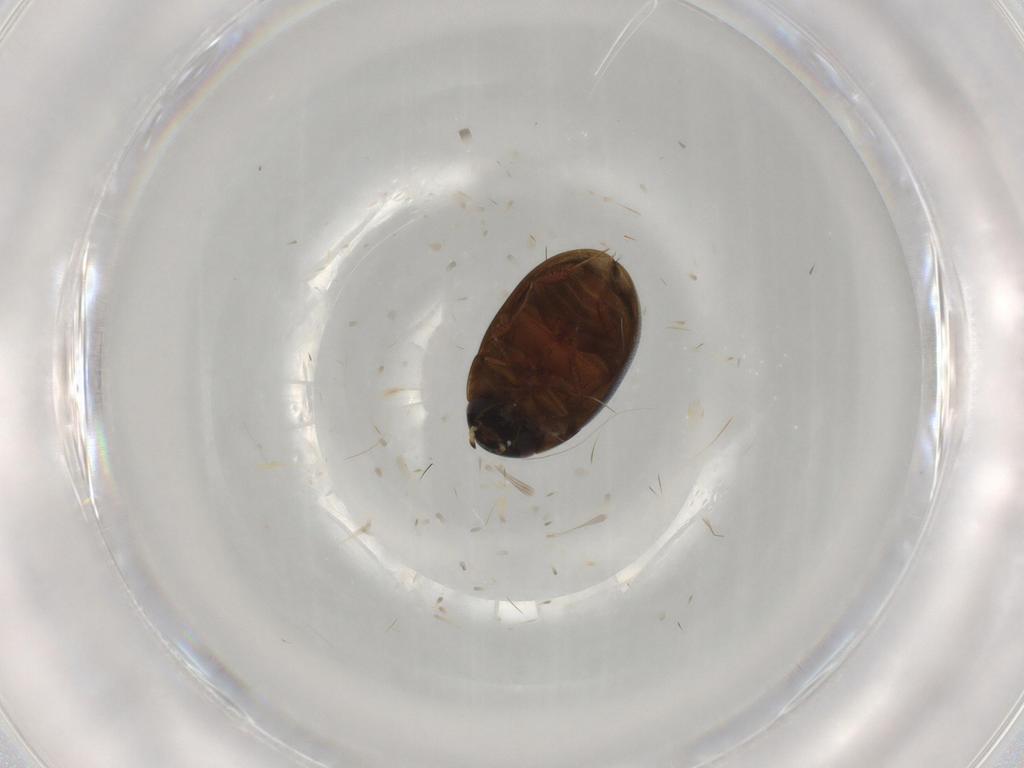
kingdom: Animalia
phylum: Arthropoda
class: Insecta
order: Coleoptera
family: Hydrophilidae
